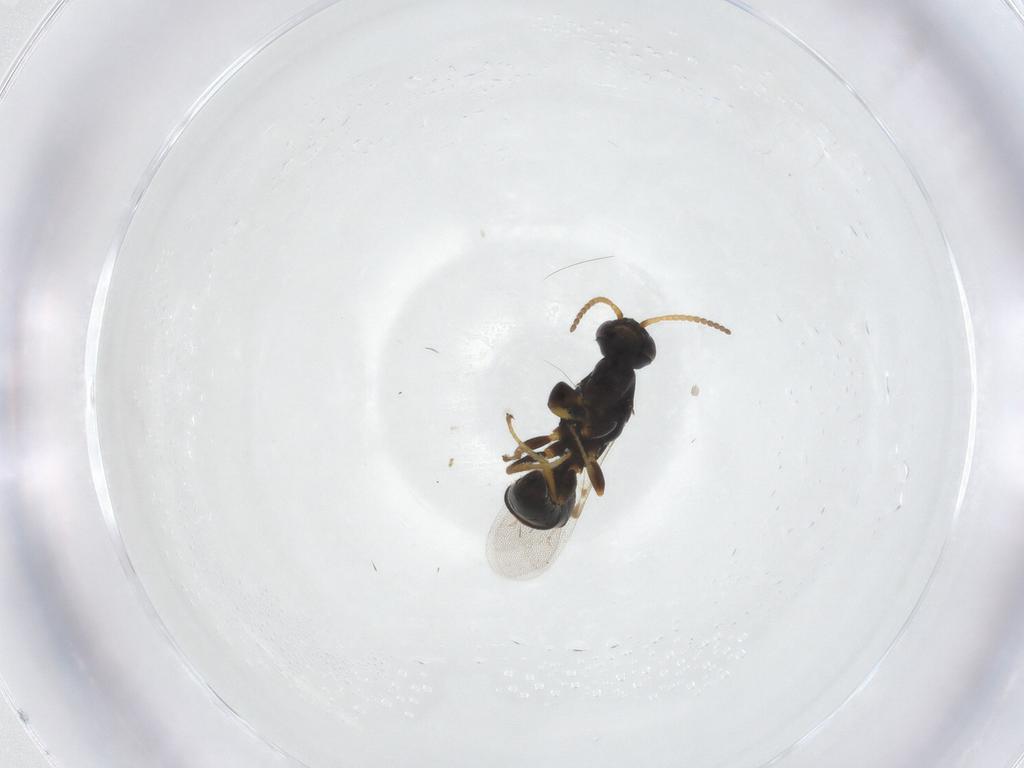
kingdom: Animalia
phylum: Arthropoda
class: Insecta
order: Hymenoptera
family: Bethylidae
